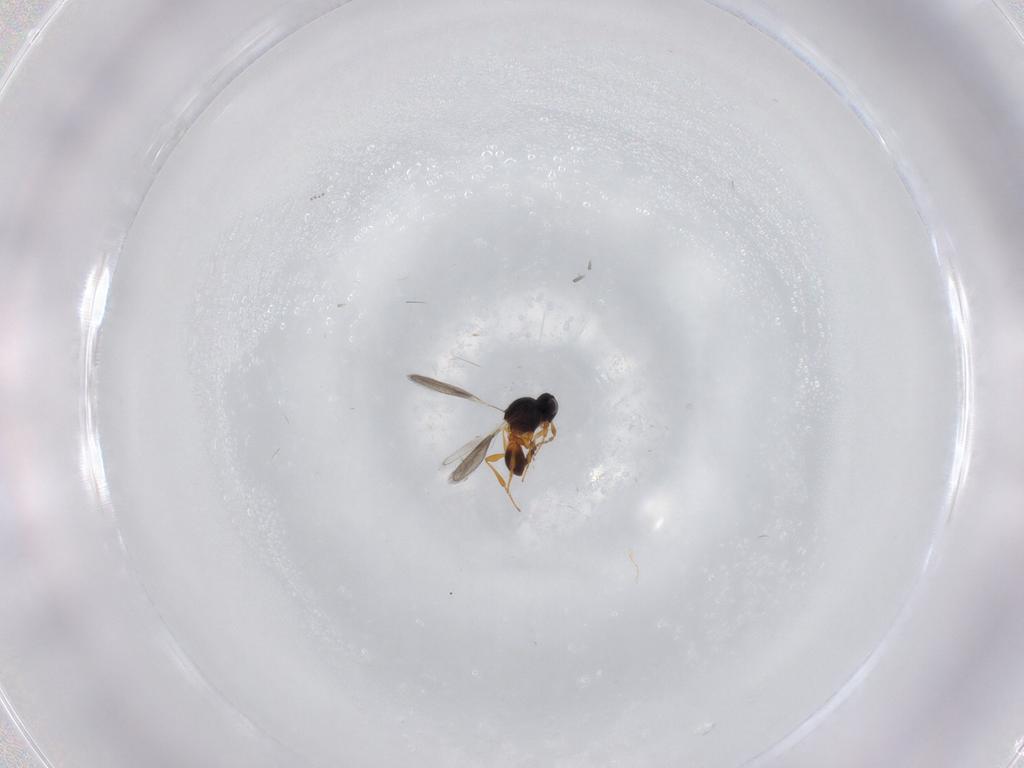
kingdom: Animalia
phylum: Arthropoda
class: Insecta
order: Hymenoptera
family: Platygastridae
